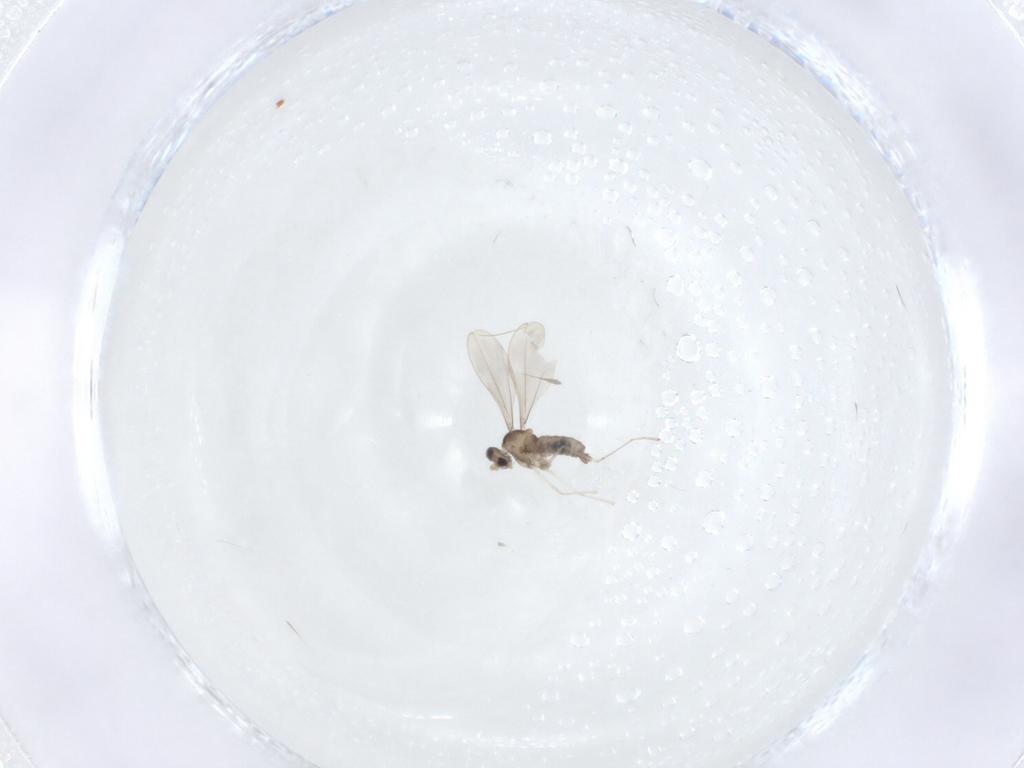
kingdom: Animalia
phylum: Arthropoda
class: Insecta
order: Diptera
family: Cecidomyiidae
